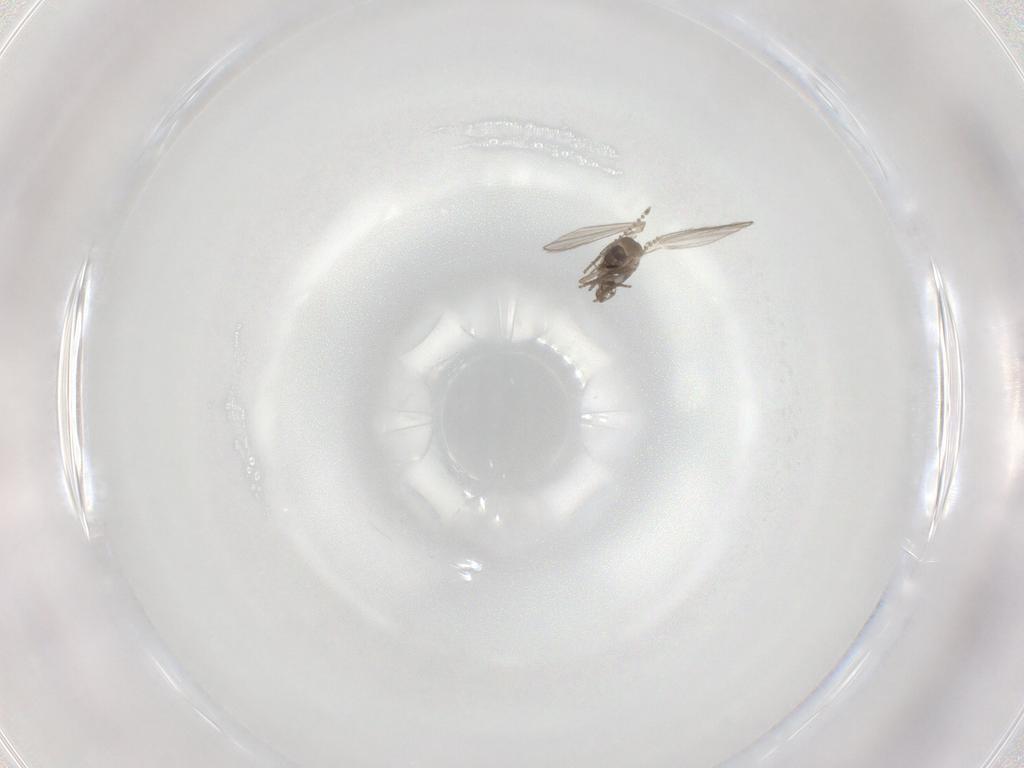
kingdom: Animalia
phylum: Arthropoda
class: Insecta
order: Diptera
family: Psychodidae
